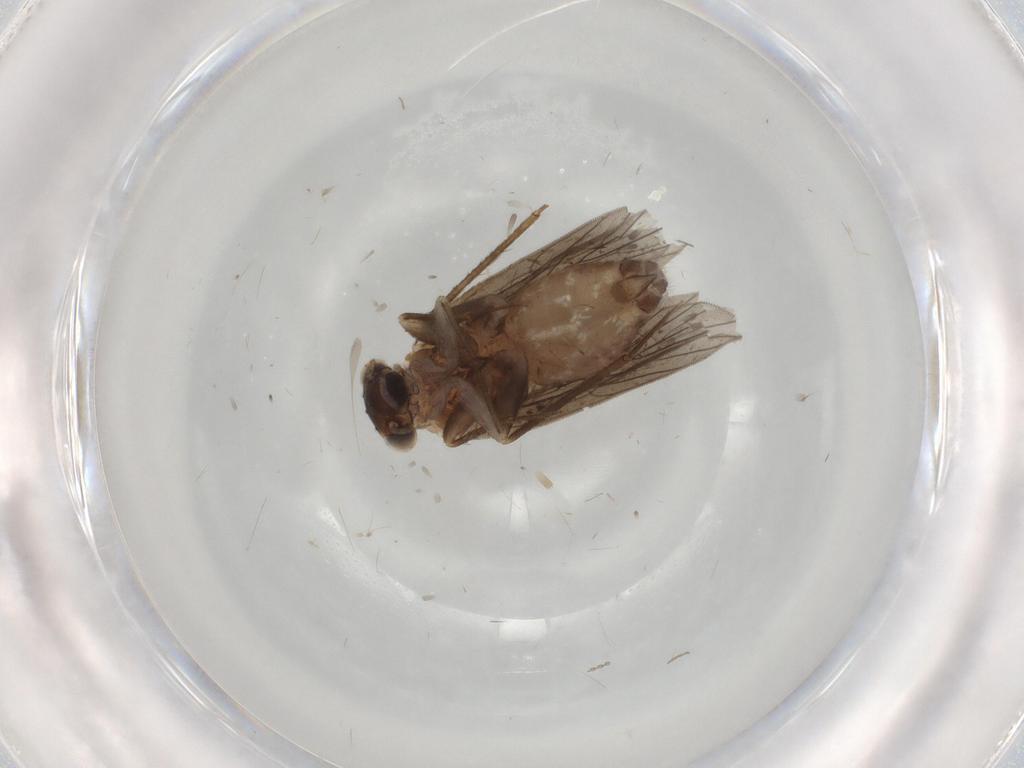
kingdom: Animalia
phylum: Arthropoda
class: Insecta
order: Psocodea
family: Lepidopsocidae
